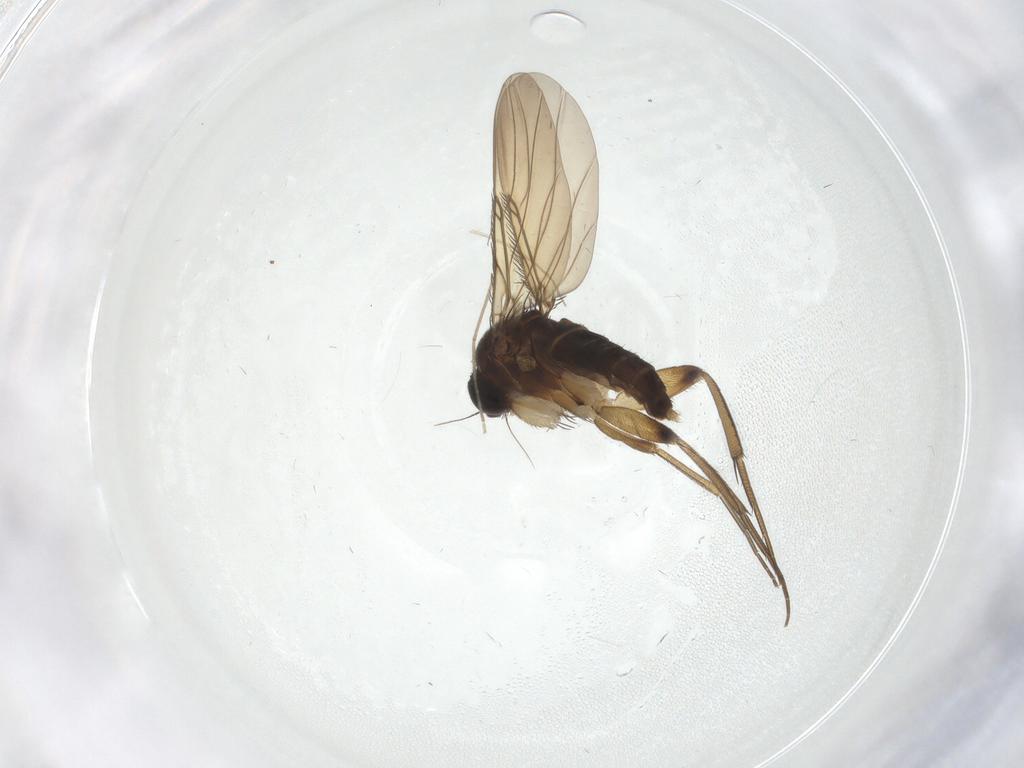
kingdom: Animalia
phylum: Arthropoda
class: Insecta
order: Diptera
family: Phoridae
